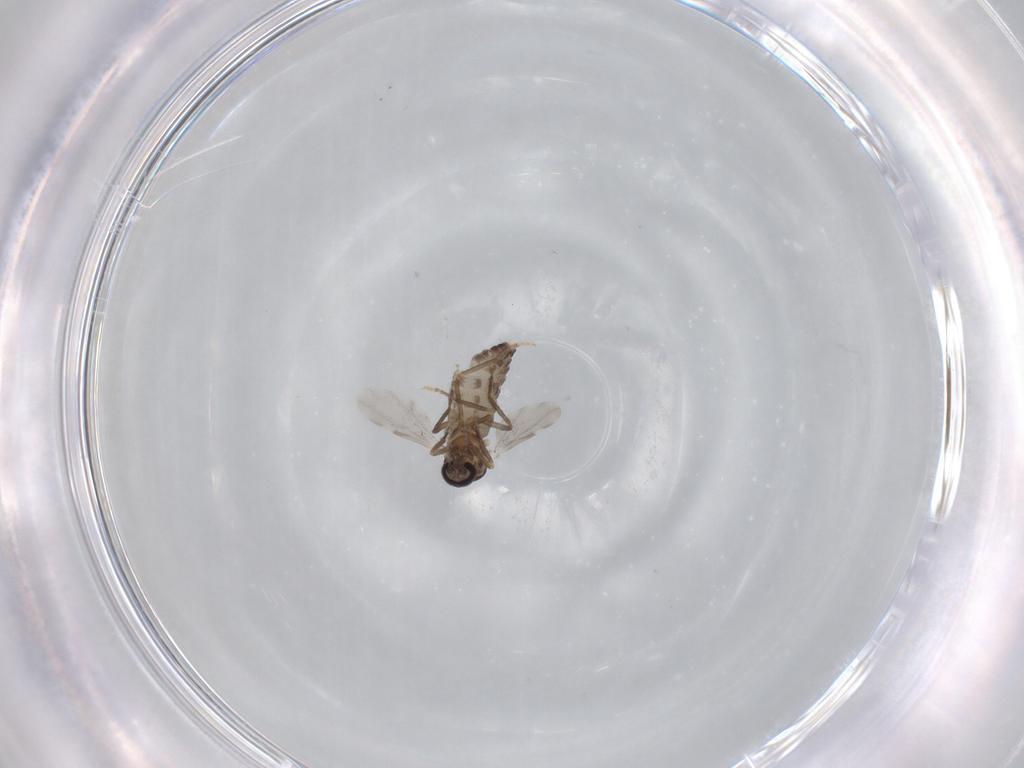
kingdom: Animalia
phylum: Arthropoda
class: Insecta
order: Diptera
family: Ceratopogonidae
